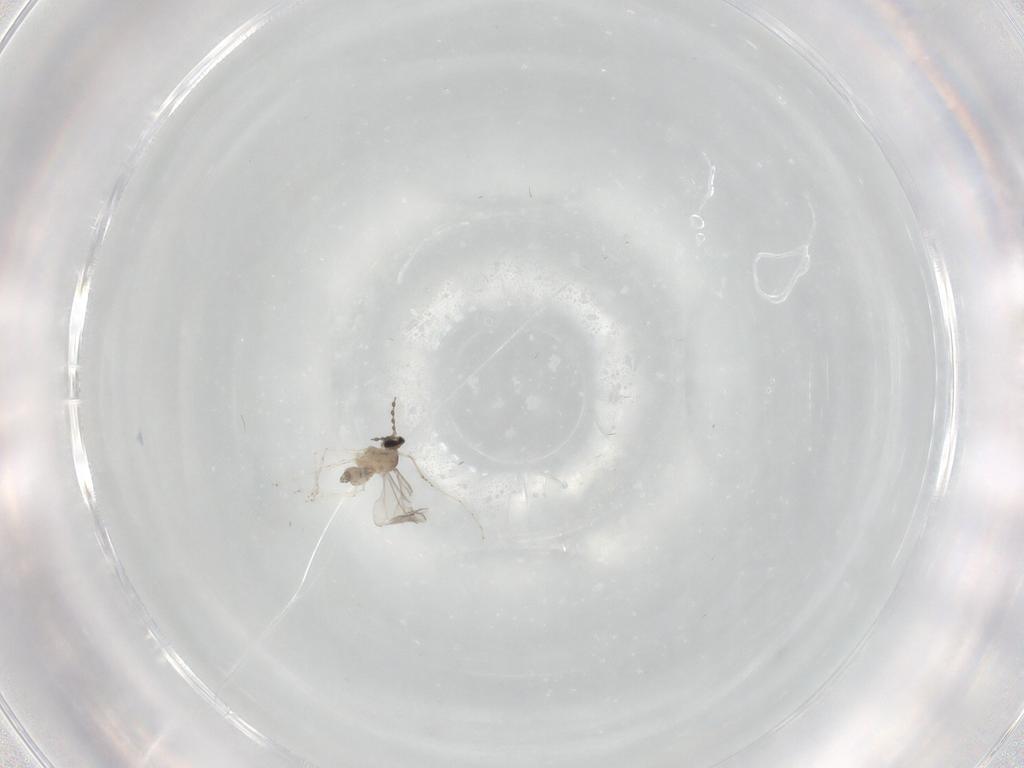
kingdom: Animalia
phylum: Arthropoda
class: Insecta
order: Diptera
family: Cecidomyiidae
